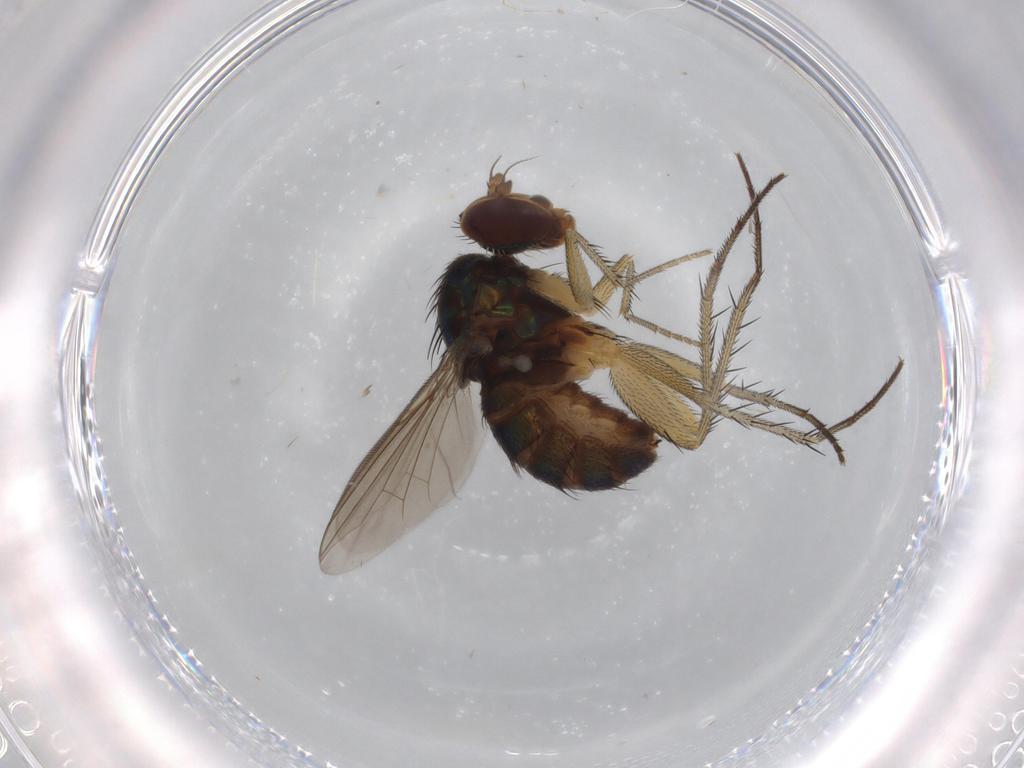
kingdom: Animalia
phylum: Arthropoda
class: Insecta
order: Diptera
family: Dolichopodidae
